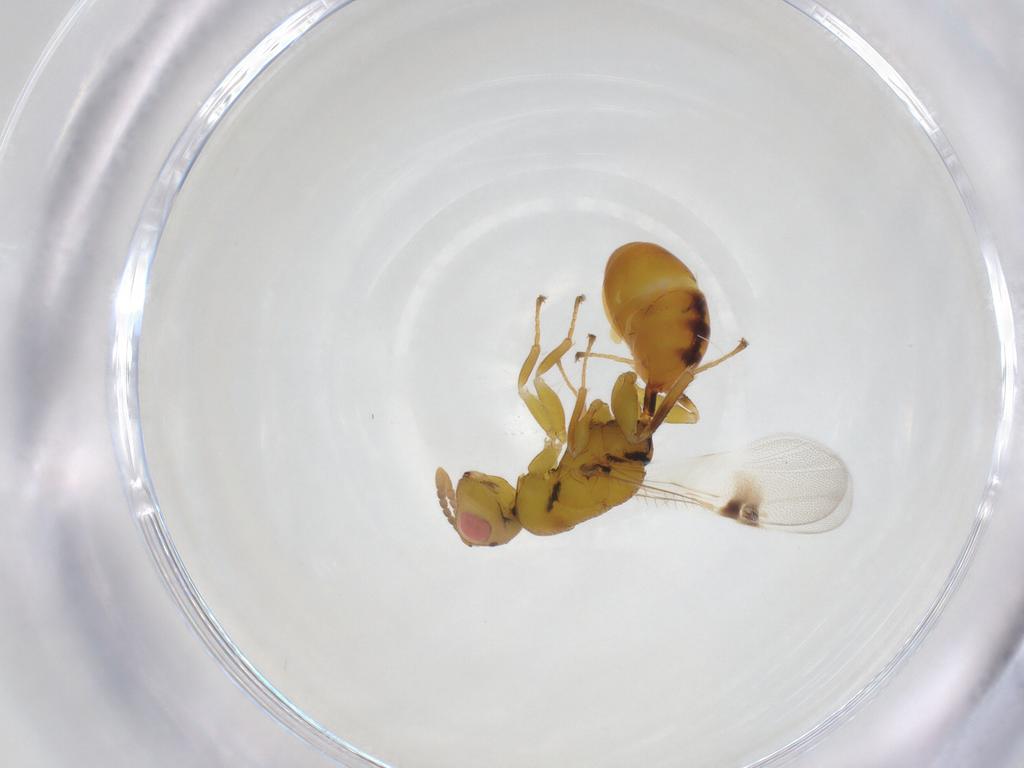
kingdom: Animalia
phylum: Arthropoda
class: Insecta
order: Hymenoptera
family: Eurytomidae
